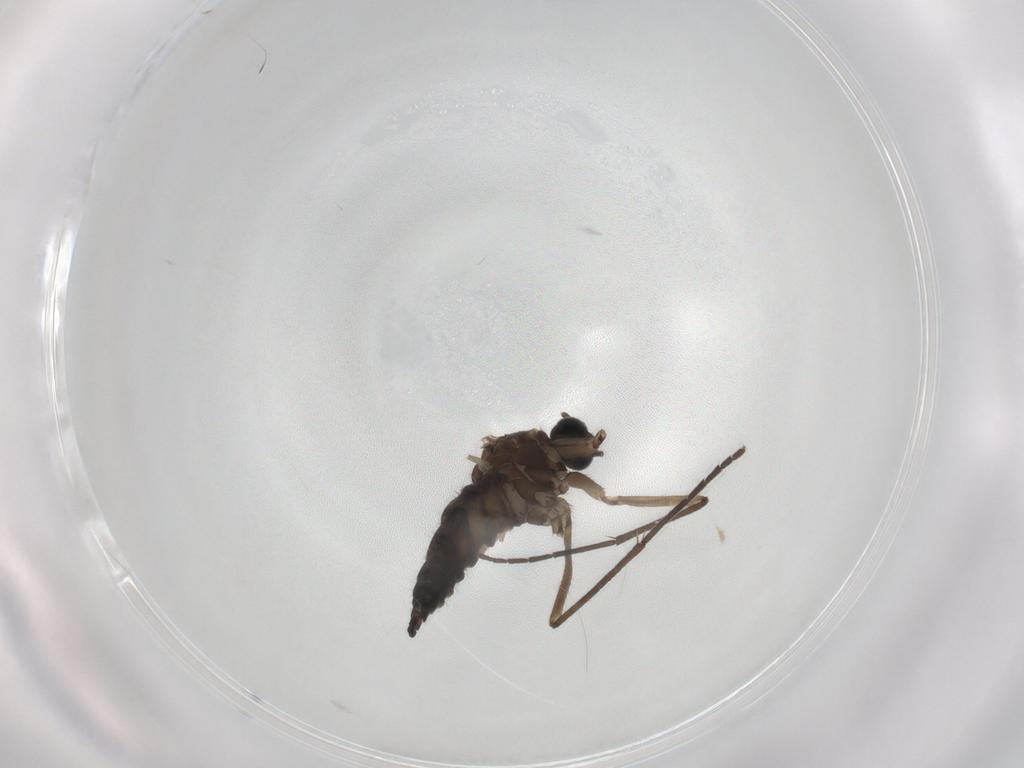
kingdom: Animalia
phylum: Arthropoda
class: Insecta
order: Diptera
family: Sciaridae
